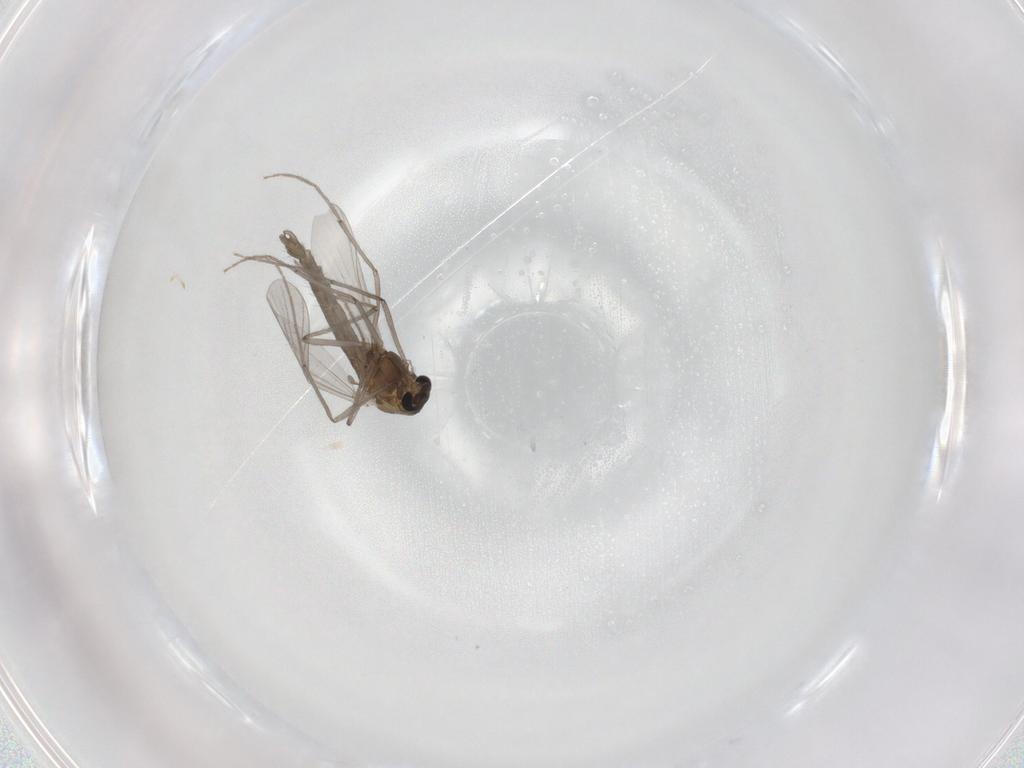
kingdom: Animalia
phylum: Arthropoda
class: Insecta
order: Diptera
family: Chironomidae
